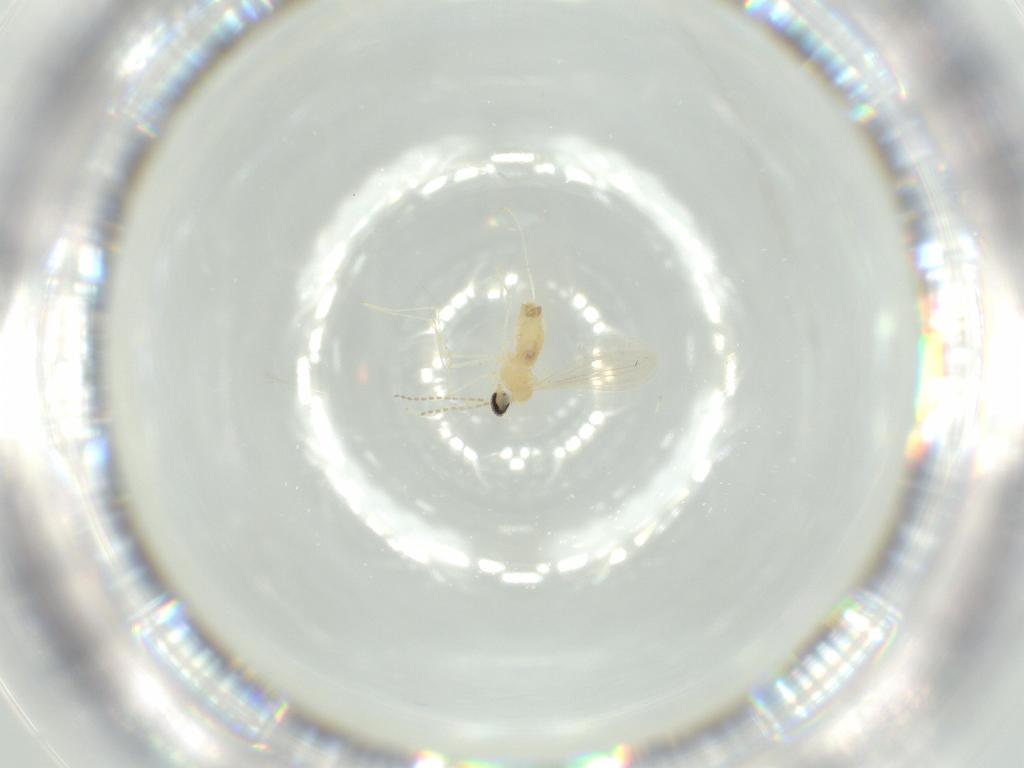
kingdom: Animalia
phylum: Arthropoda
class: Insecta
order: Diptera
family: Cecidomyiidae
